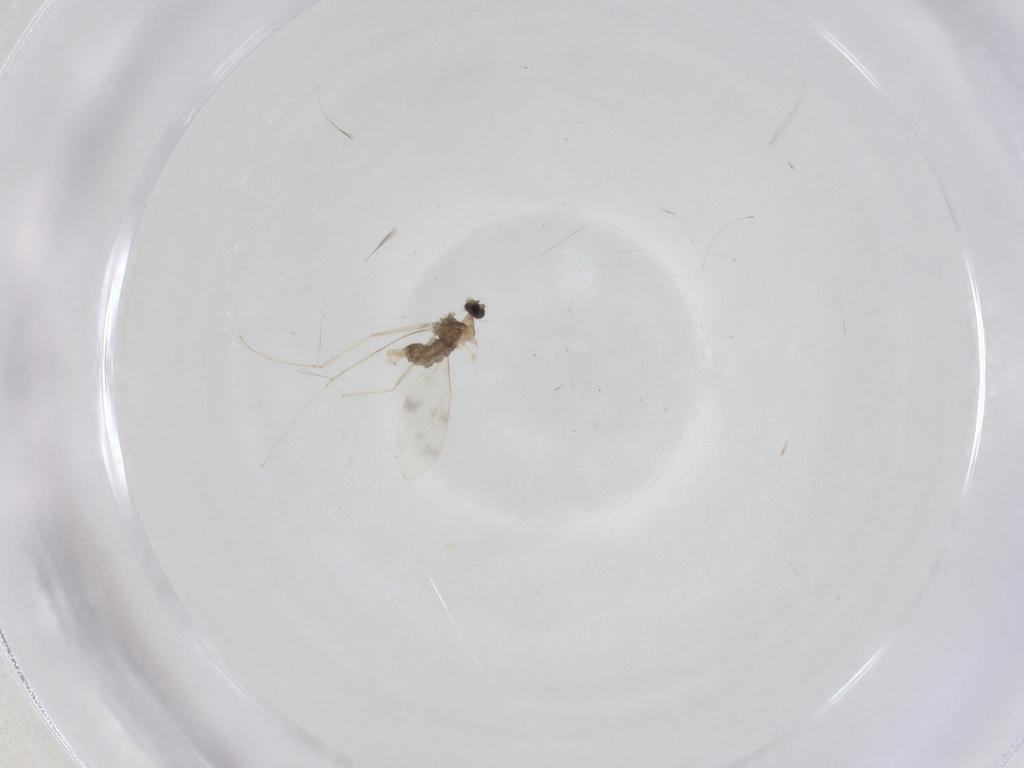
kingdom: Animalia
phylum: Arthropoda
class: Insecta
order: Diptera
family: Cecidomyiidae
